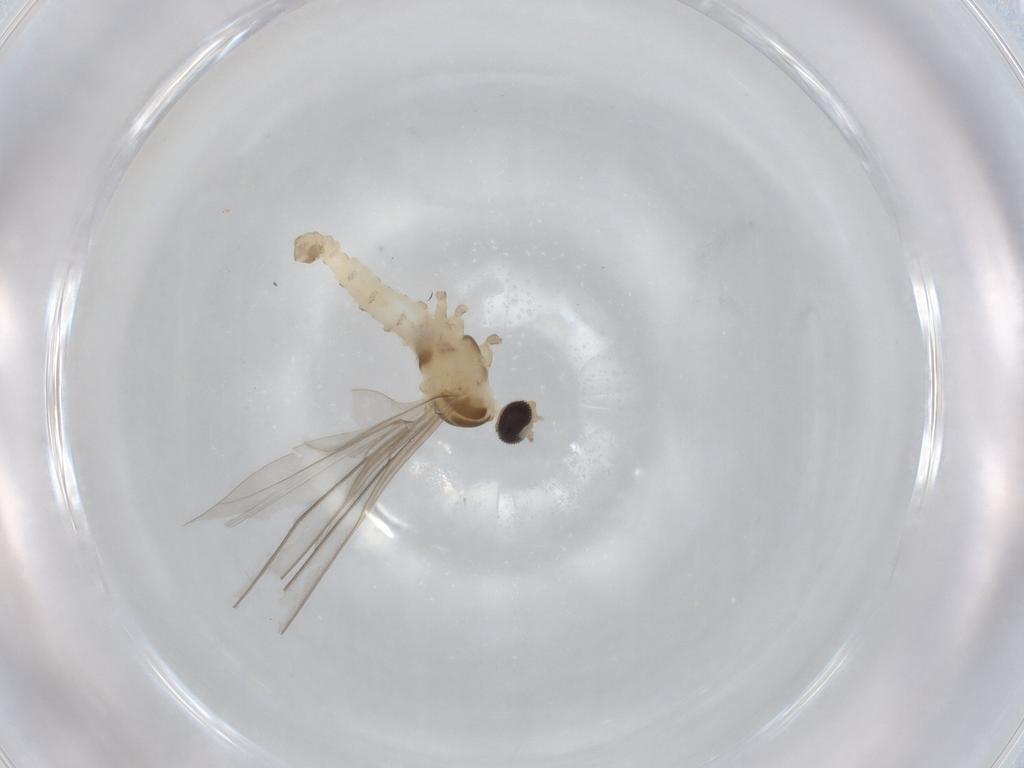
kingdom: Animalia
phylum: Arthropoda
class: Insecta
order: Diptera
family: Cecidomyiidae
